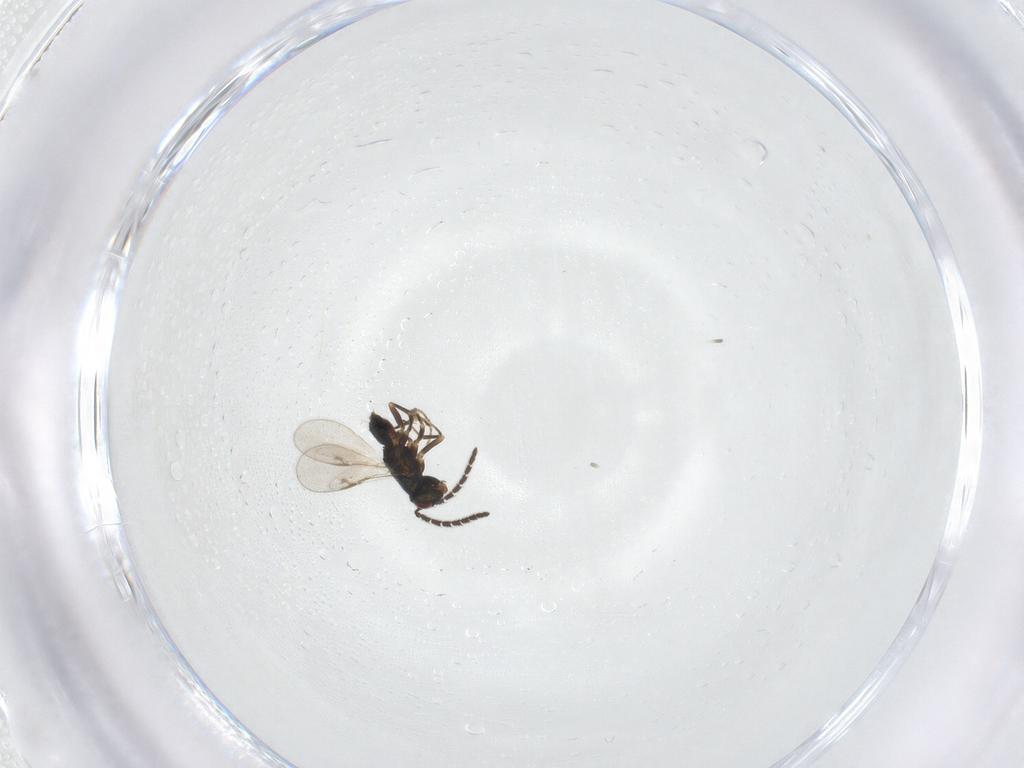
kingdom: Animalia
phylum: Arthropoda
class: Insecta
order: Hymenoptera
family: Encyrtidae
